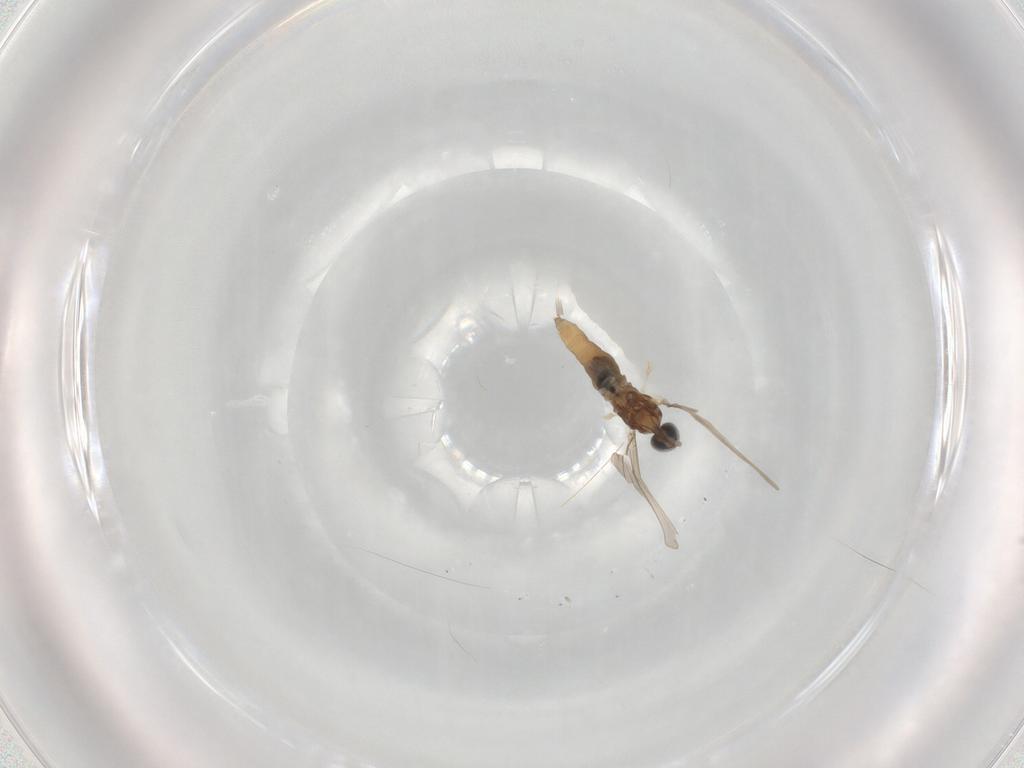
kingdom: Animalia
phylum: Arthropoda
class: Insecta
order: Diptera
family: Cecidomyiidae
